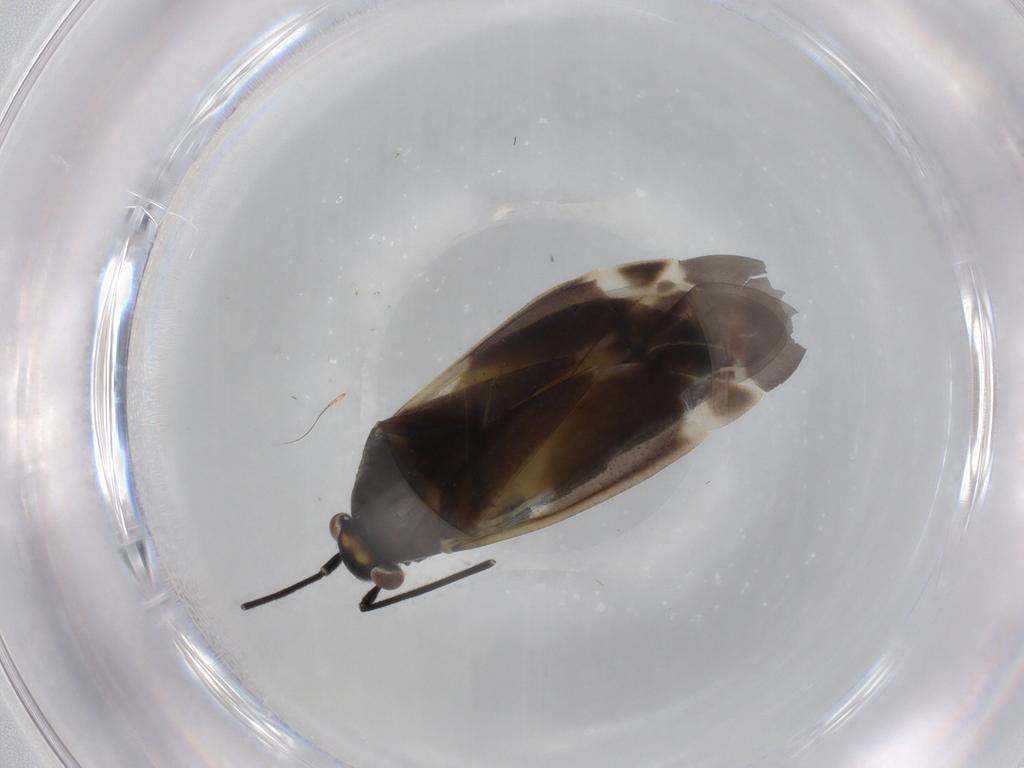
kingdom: Animalia
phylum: Arthropoda
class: Insecta
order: Hemiptera
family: Miridae
